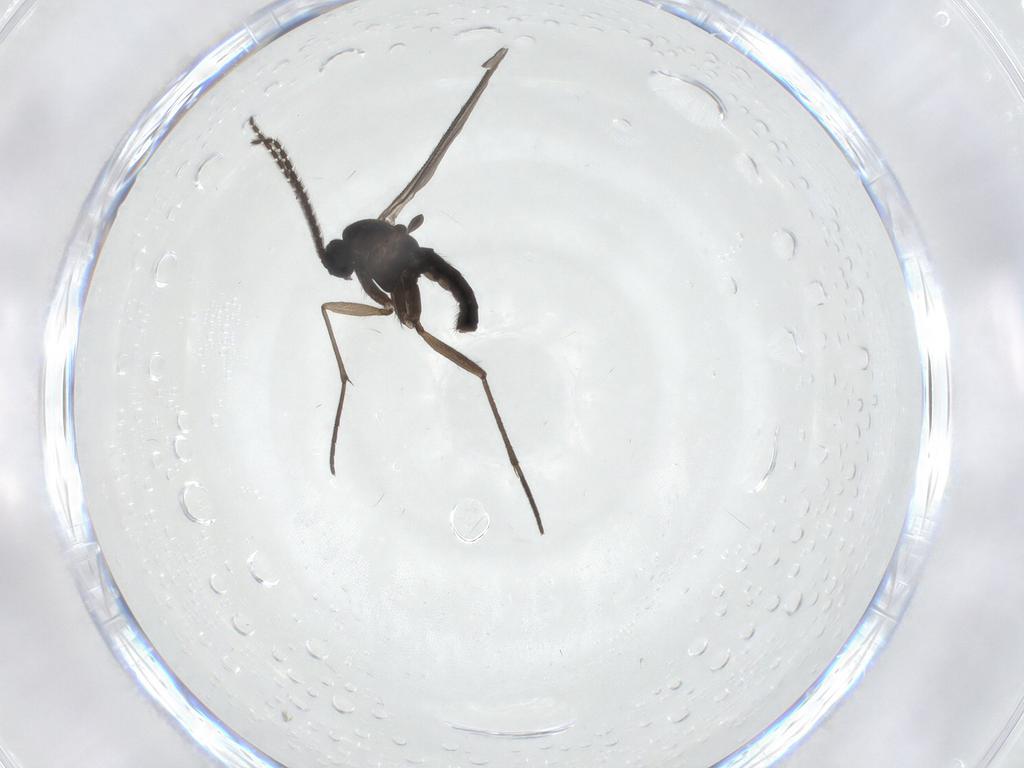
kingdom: Animalia
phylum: Arthropoda
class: Insecta
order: Diptera
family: Sciaridae
